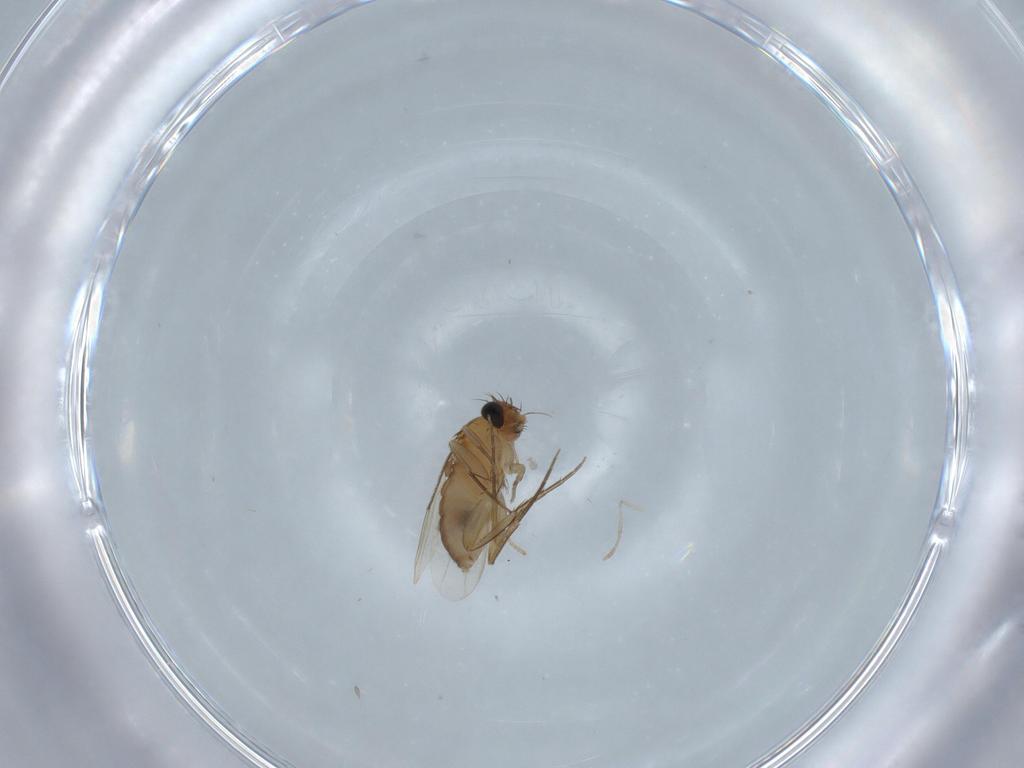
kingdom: Animalia
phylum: Arthropoda
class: Insecta
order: Diptera
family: Phoridae
